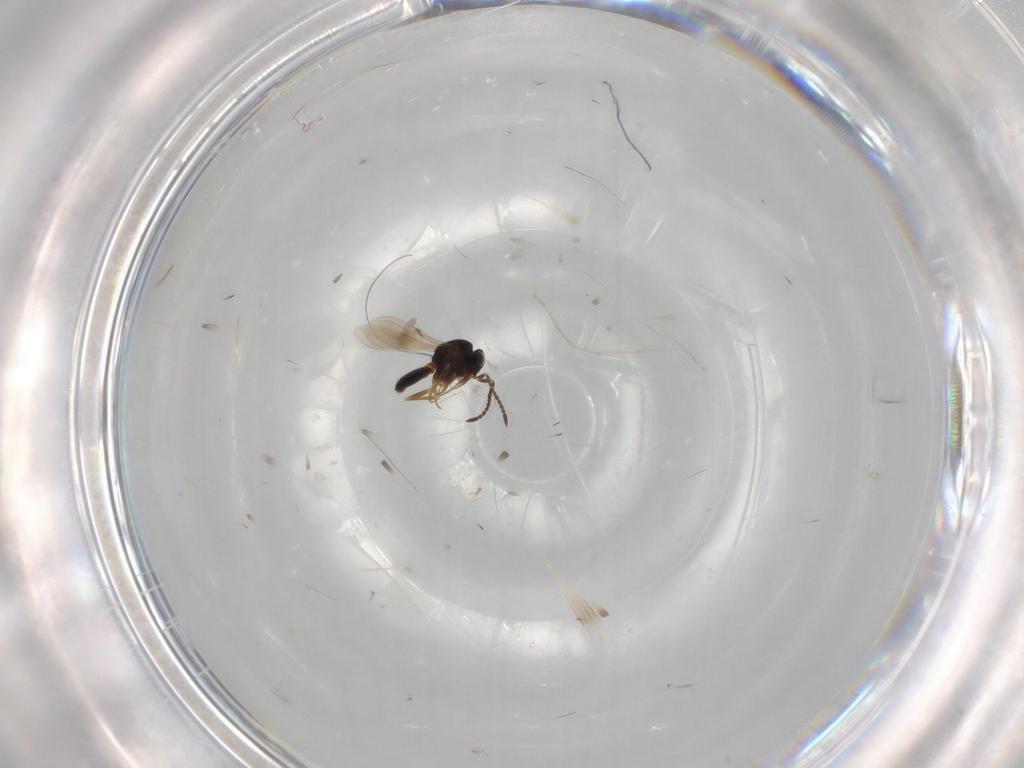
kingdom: Animalia
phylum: Arthropoda
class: Insecta
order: Hymenoptera
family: Scelionidae
